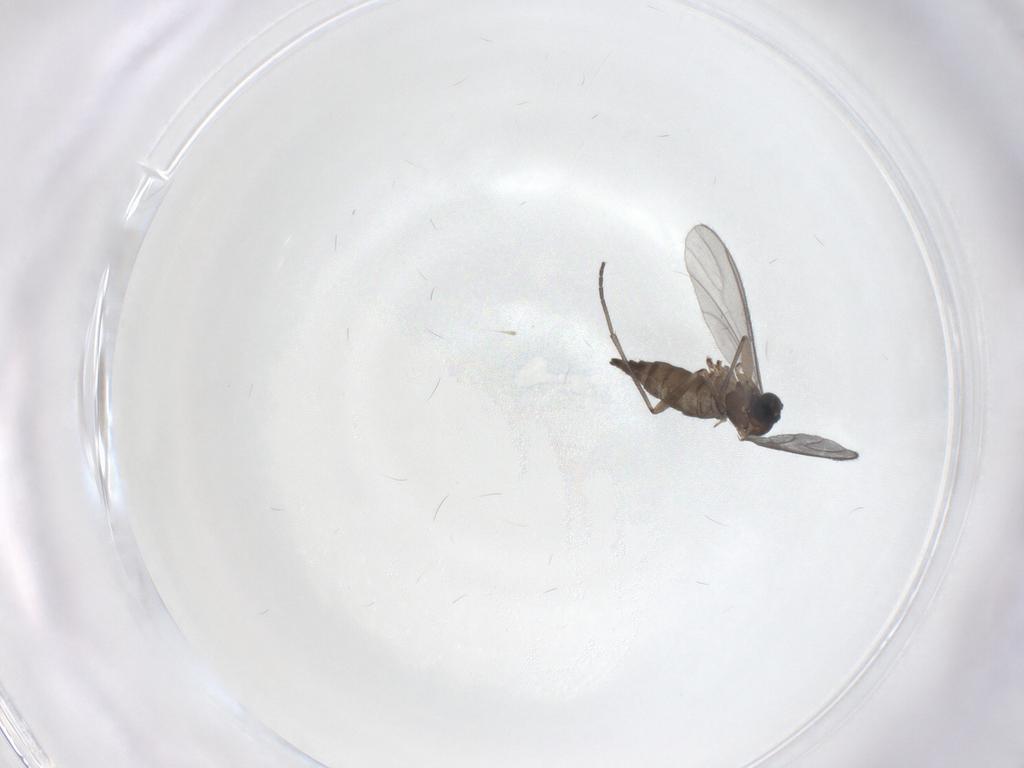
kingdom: Animalia
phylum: Arthropoda
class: Insecta
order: Diptera
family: Sciaridae
